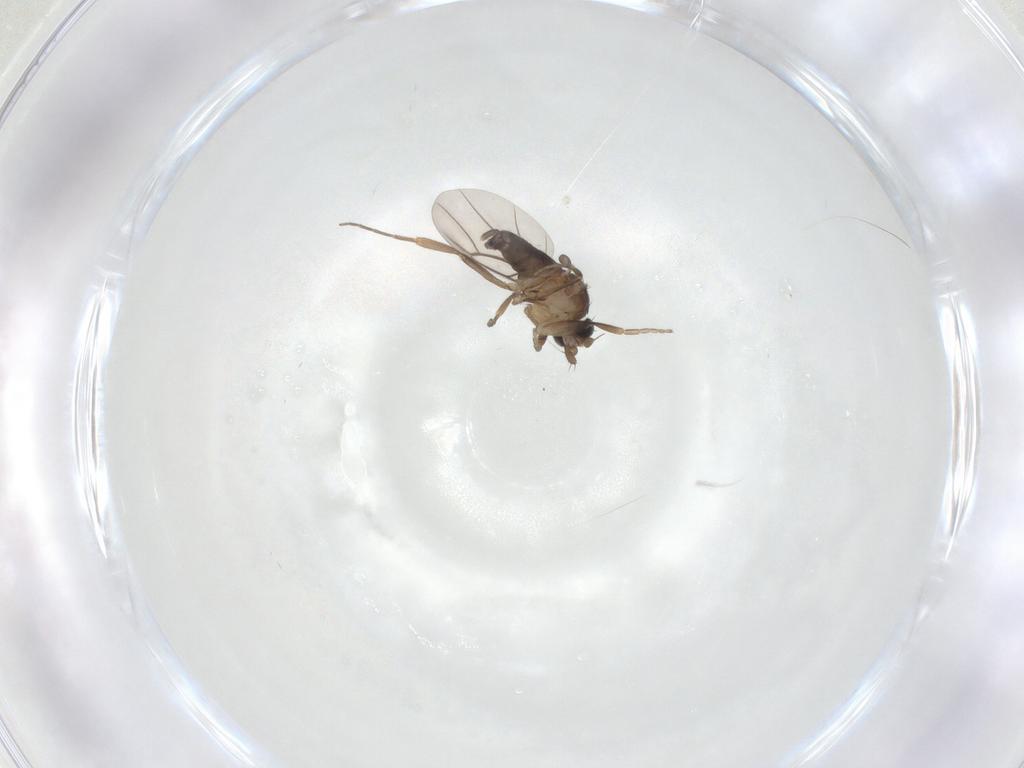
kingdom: Animalia
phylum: Arthropoda
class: Insecta
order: Diptera
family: Phoridae
